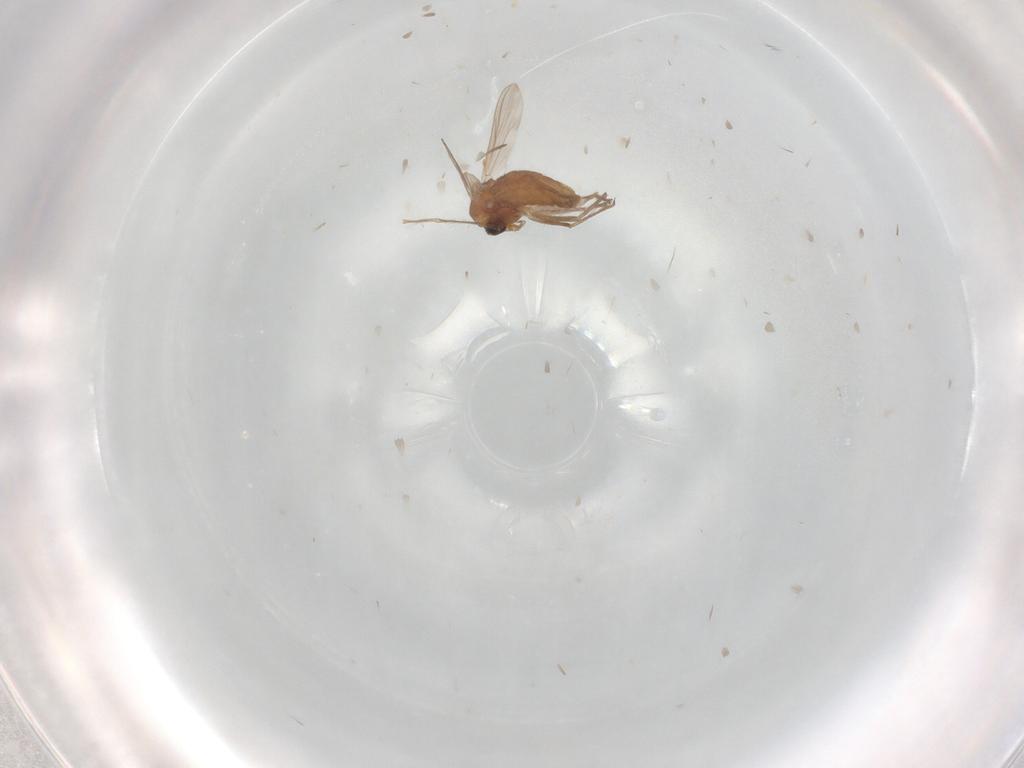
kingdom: Animalia
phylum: Arthropoda
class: Insecta
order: Diptera
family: Chironomidae
